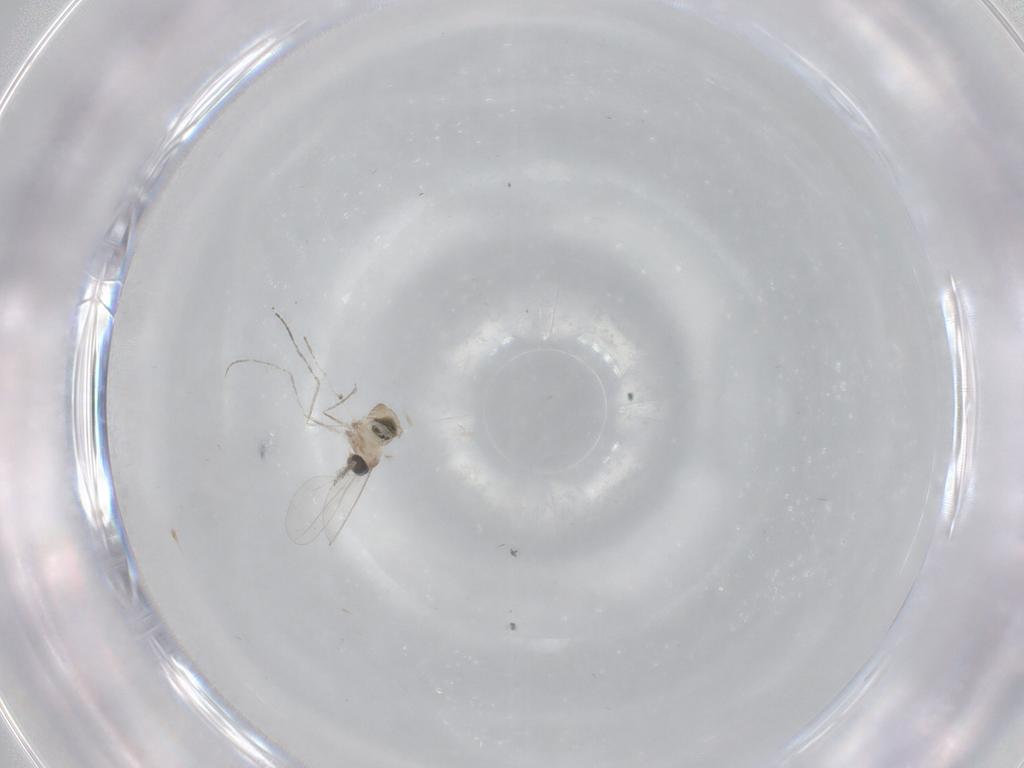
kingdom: Animalia
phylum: Arthropoda
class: Insecta
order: Diptera
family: Cecidomyiidae
